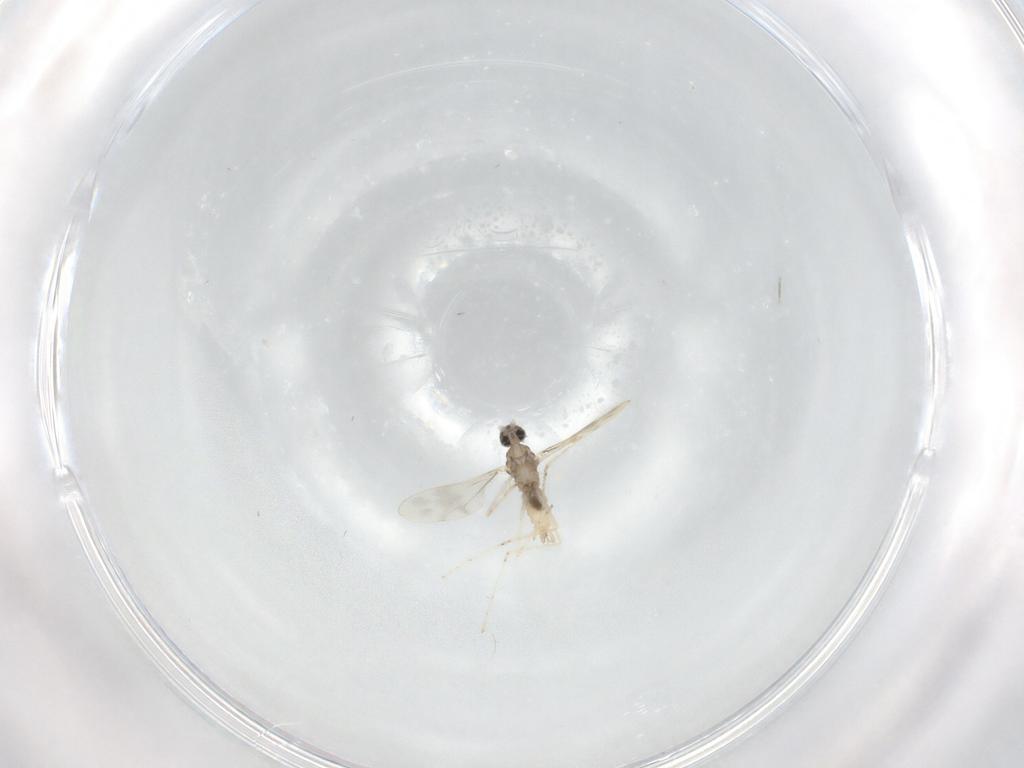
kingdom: Animalia
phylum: Arthropoda
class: Insecta
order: Diptera
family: Cecidomyiidae
